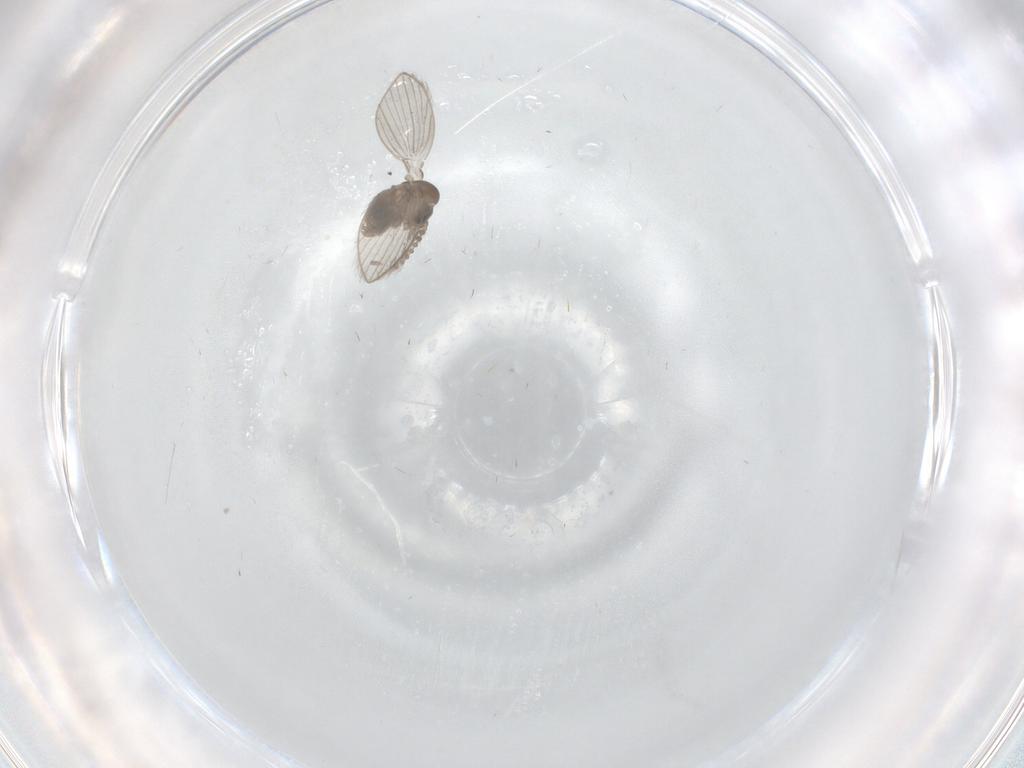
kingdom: Animalia
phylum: Arthropoda
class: Insecta
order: Diptera
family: Psychodidae
